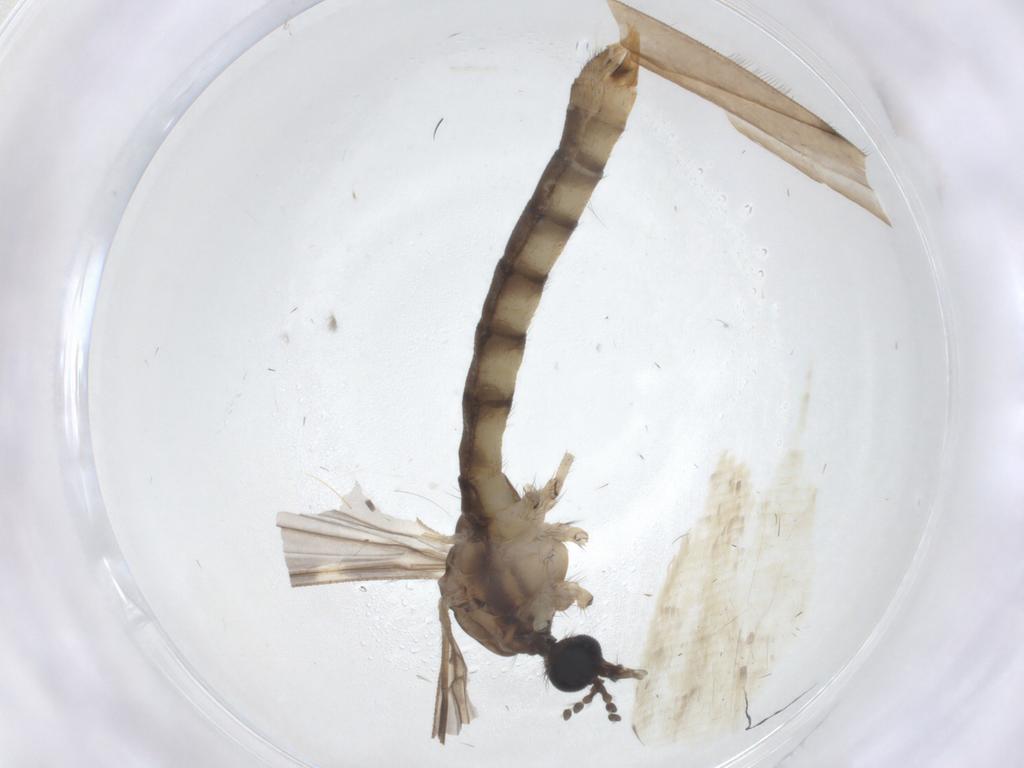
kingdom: Animalia
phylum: Arthropoda
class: Insecta
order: Diptera
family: Limoniidae
